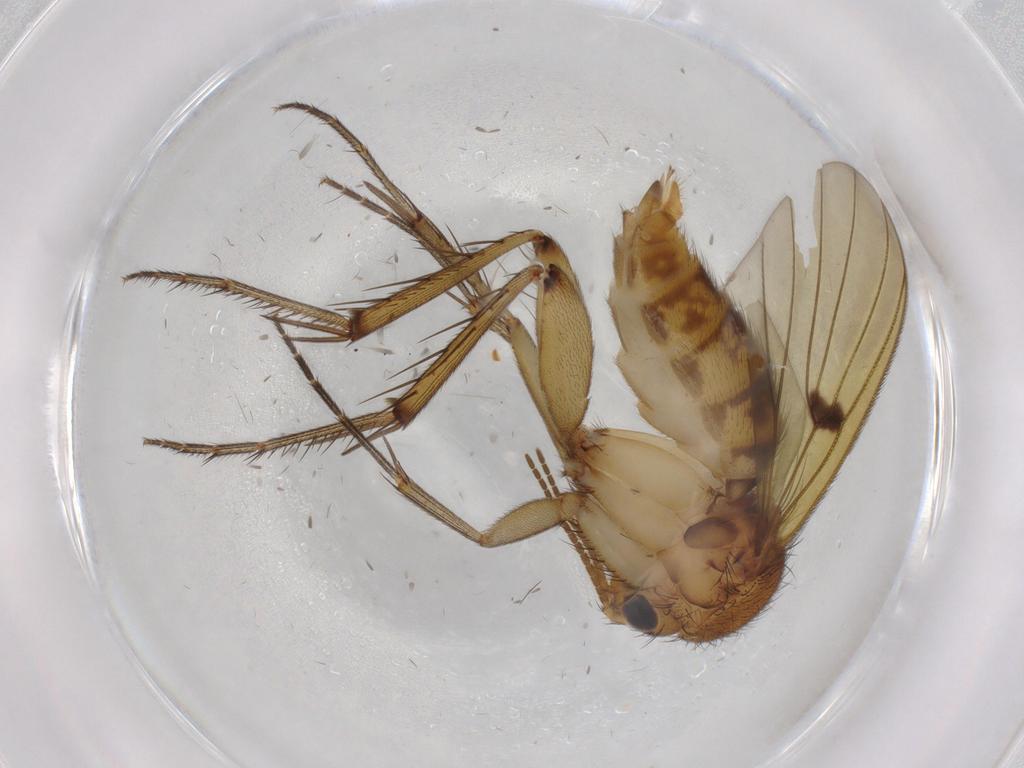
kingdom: Animalia
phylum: Arthropoda
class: Insecta
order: Diptera
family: Mycetophilidae
